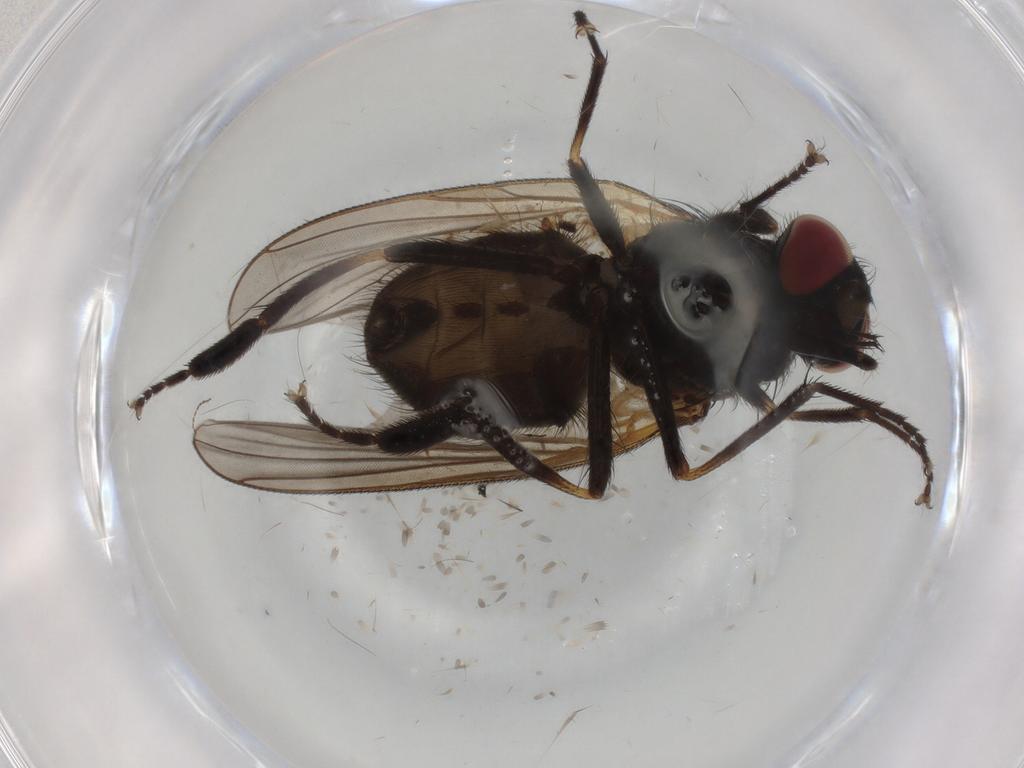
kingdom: Animalia
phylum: Arthropoda
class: Insecta
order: Diptera
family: Muscidae
